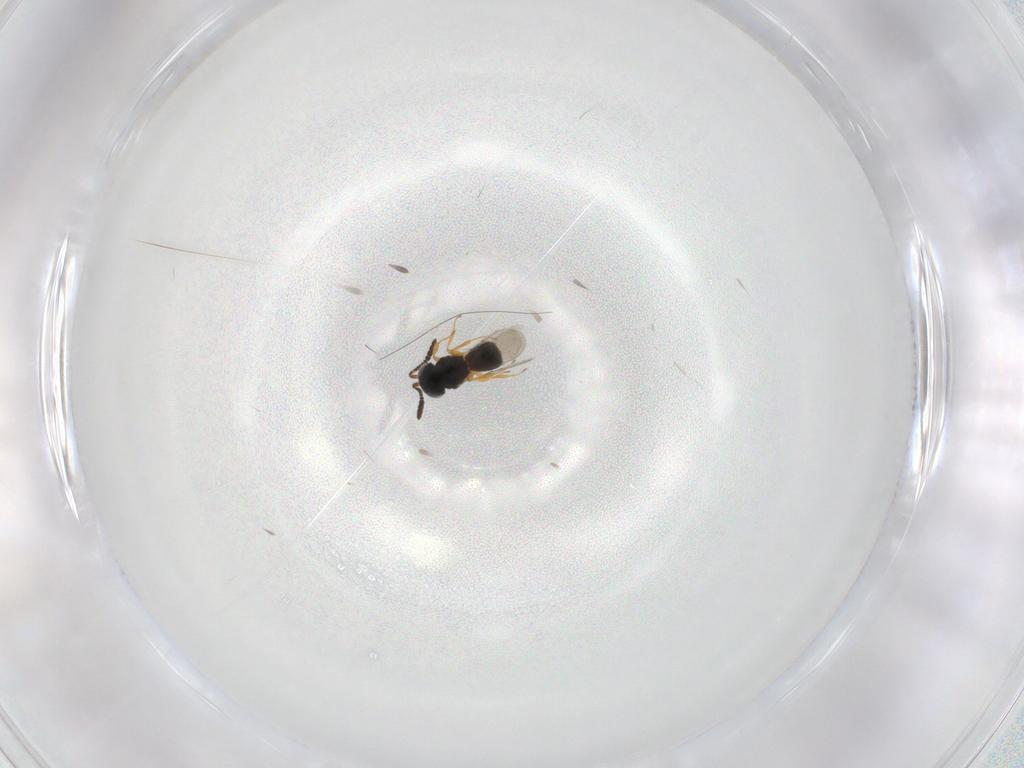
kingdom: Animalia
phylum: Arthropoda
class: Insecta
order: Hymenoptera
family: Scelionidae
